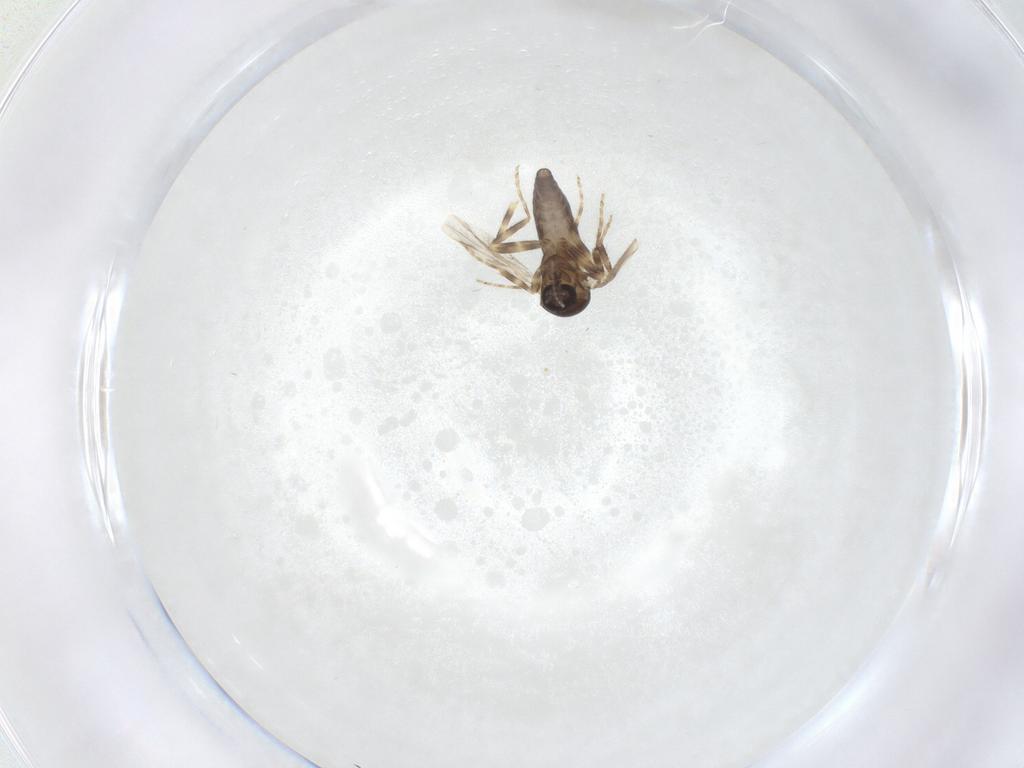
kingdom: Animalia
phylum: Arthropoda
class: Insecta
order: Diptera
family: Ceratopogonidae
